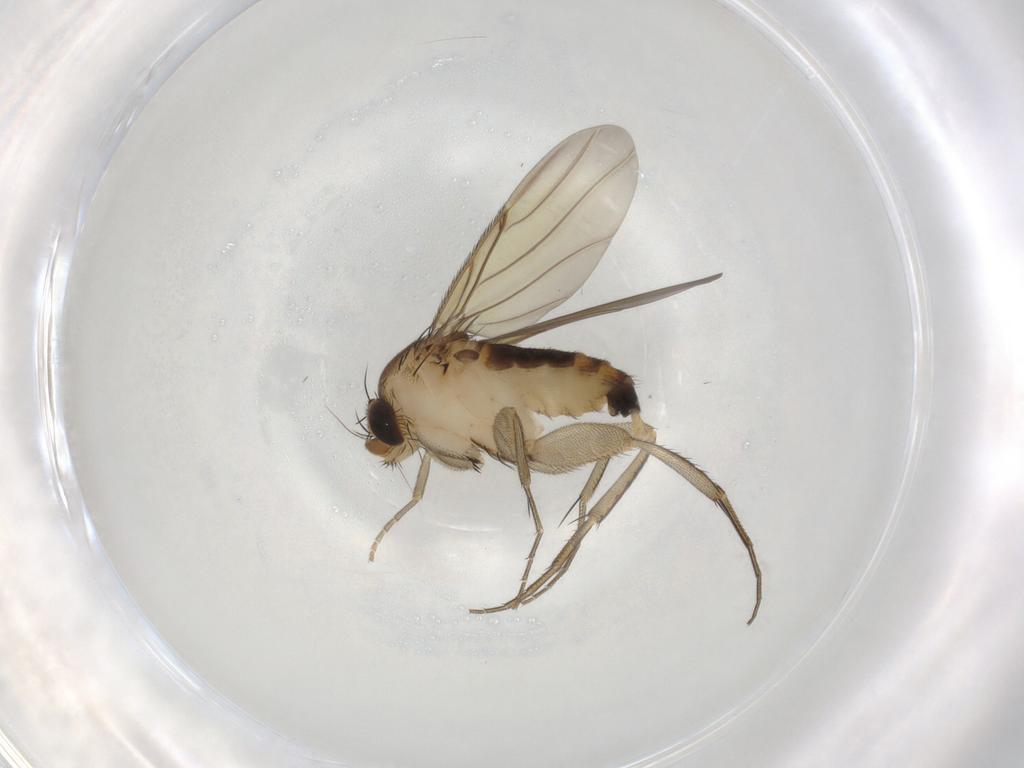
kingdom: Animalia
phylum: Arthropoda
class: Insecta
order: Diptera
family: Phoridae
